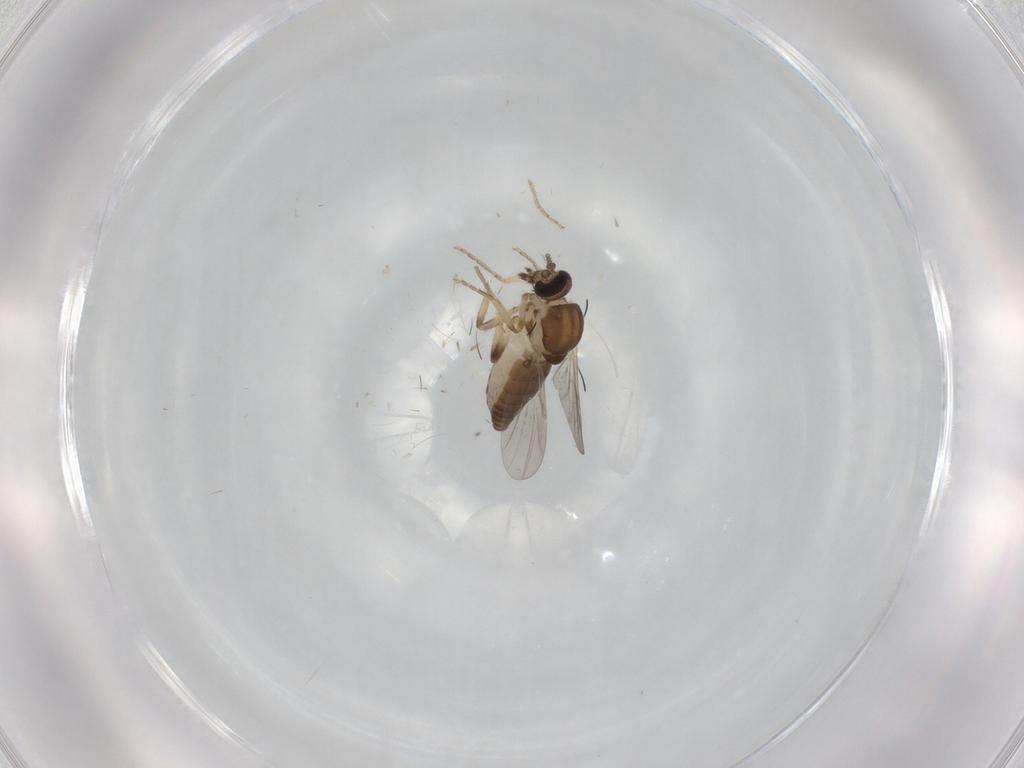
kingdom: Animalia
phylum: Arthropoda
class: Insecta
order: Diptera
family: Ceratopogonidae
